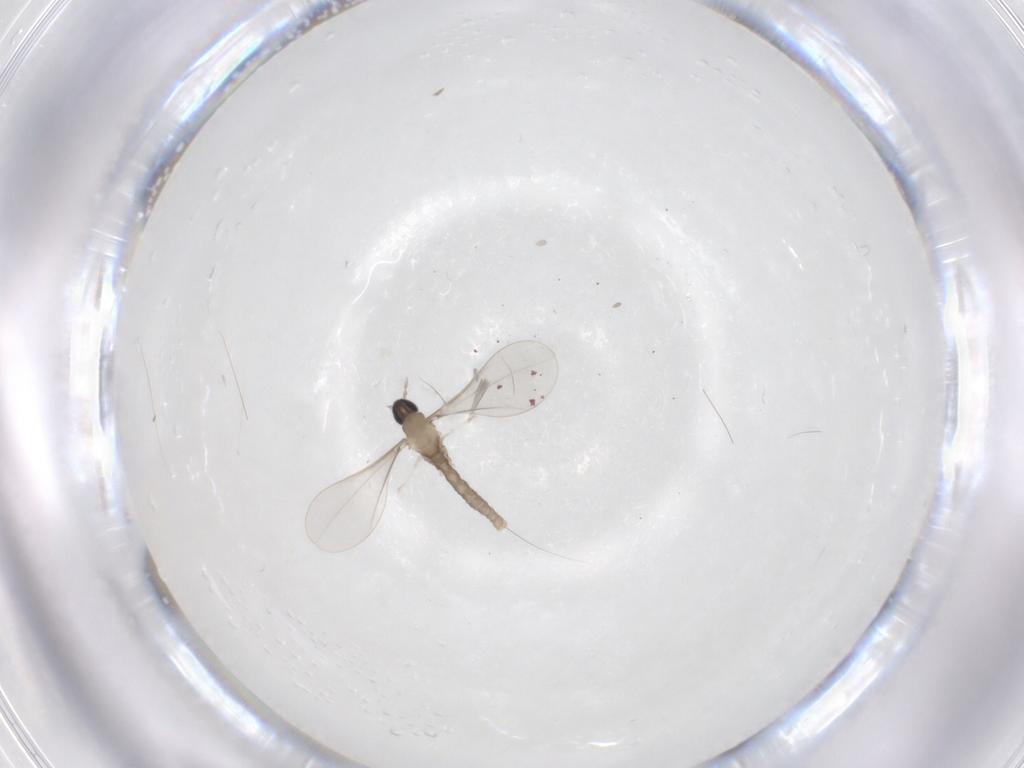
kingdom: Animalia
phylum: Arthropoda
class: Insecta
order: Diptera
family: Cecidomyiidae
